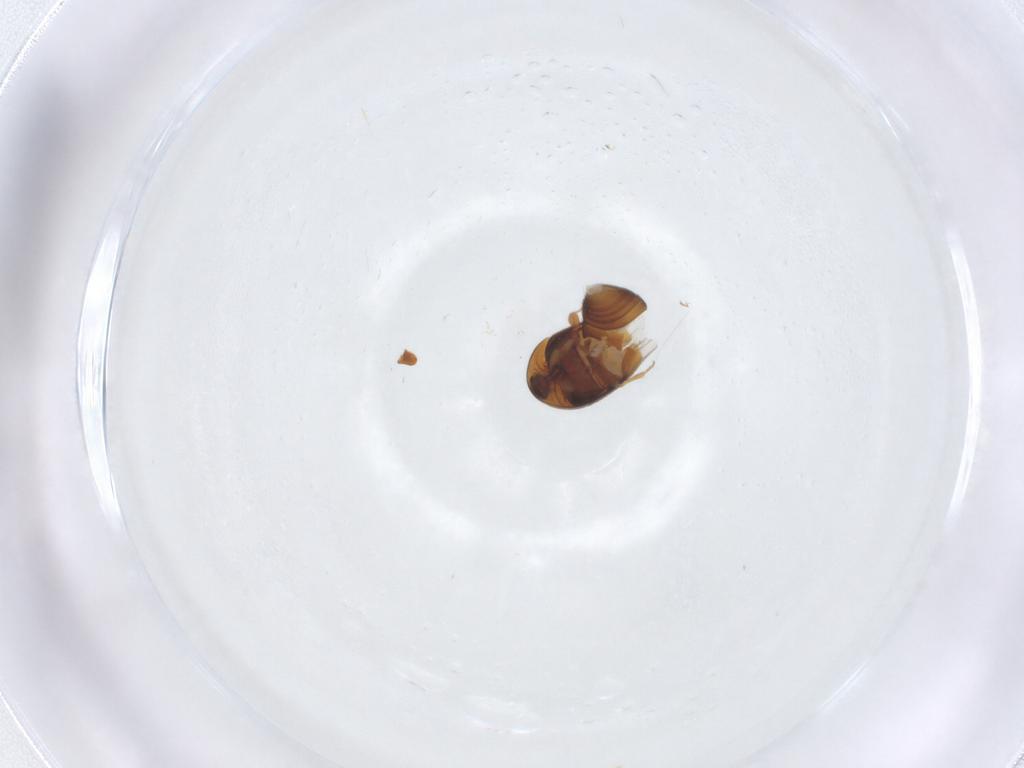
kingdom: Animalia
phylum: Arthropoda
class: Insecta
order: Coleoptera
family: Corylophidae
